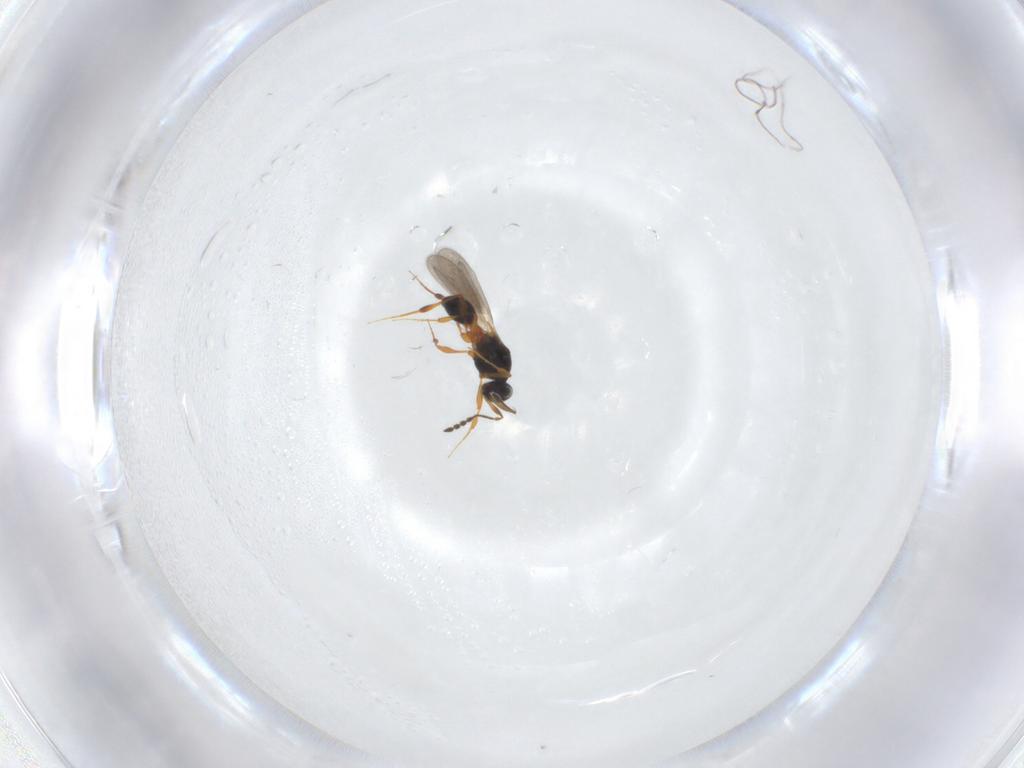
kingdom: Animalia
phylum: Arthropoda
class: Insecta
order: Hymenoptera
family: Platygastridae
